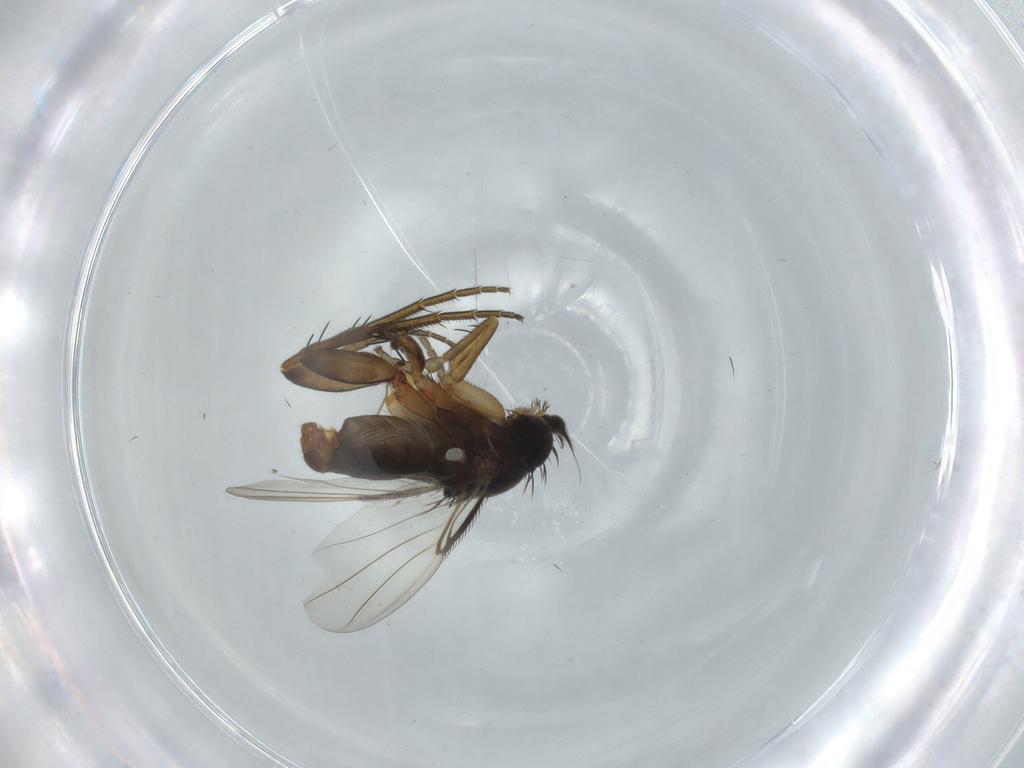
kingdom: Animalia
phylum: Arthropoda
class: Insecta
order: Diptera
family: Phoridae
